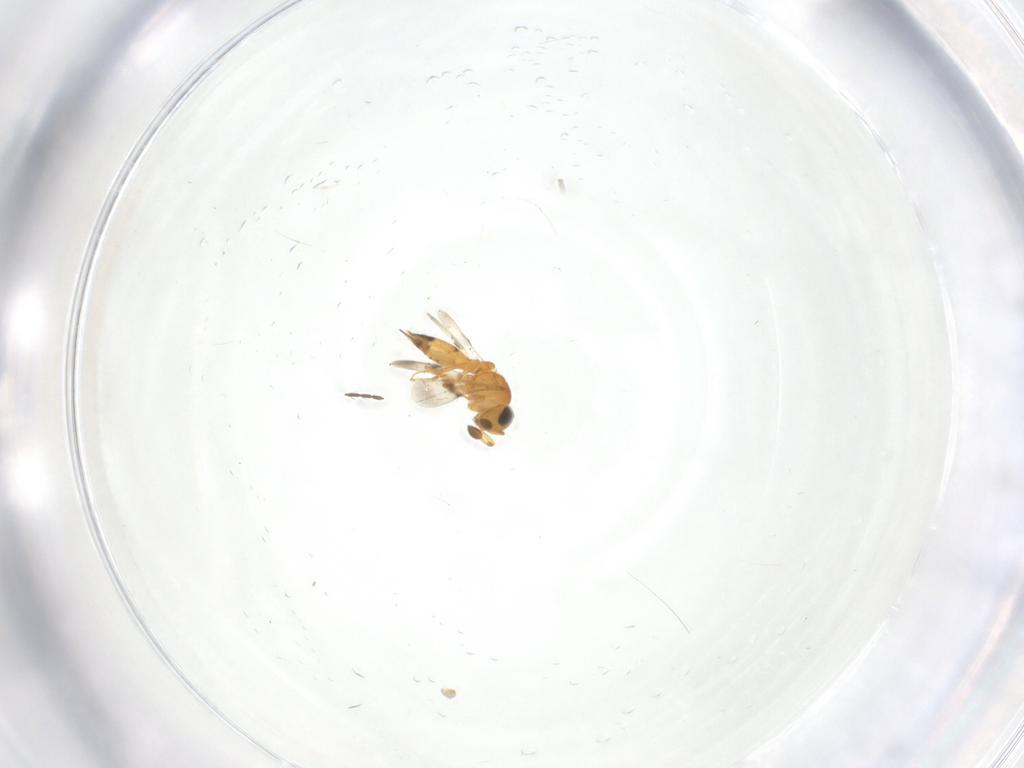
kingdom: Animalia
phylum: Arthropoda
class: Insecta
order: Hymenoptera
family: Scelionidae
